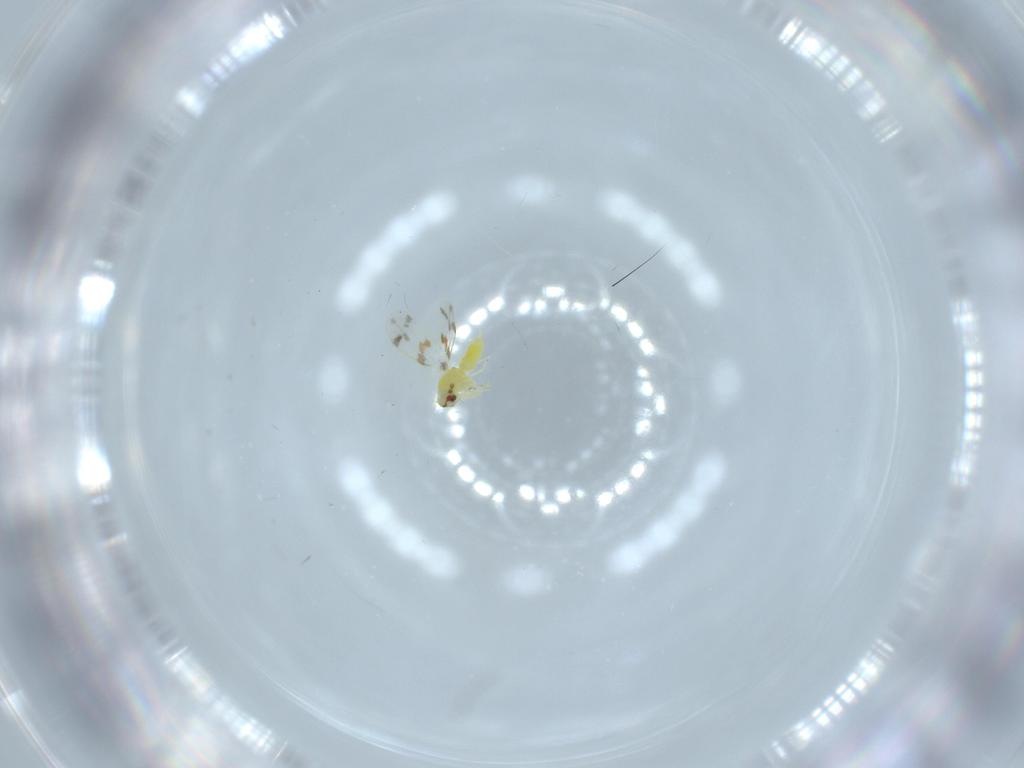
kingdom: Animalia
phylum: Arthropoda
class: Insecta
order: Hemiptera
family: Aleyrodidae
